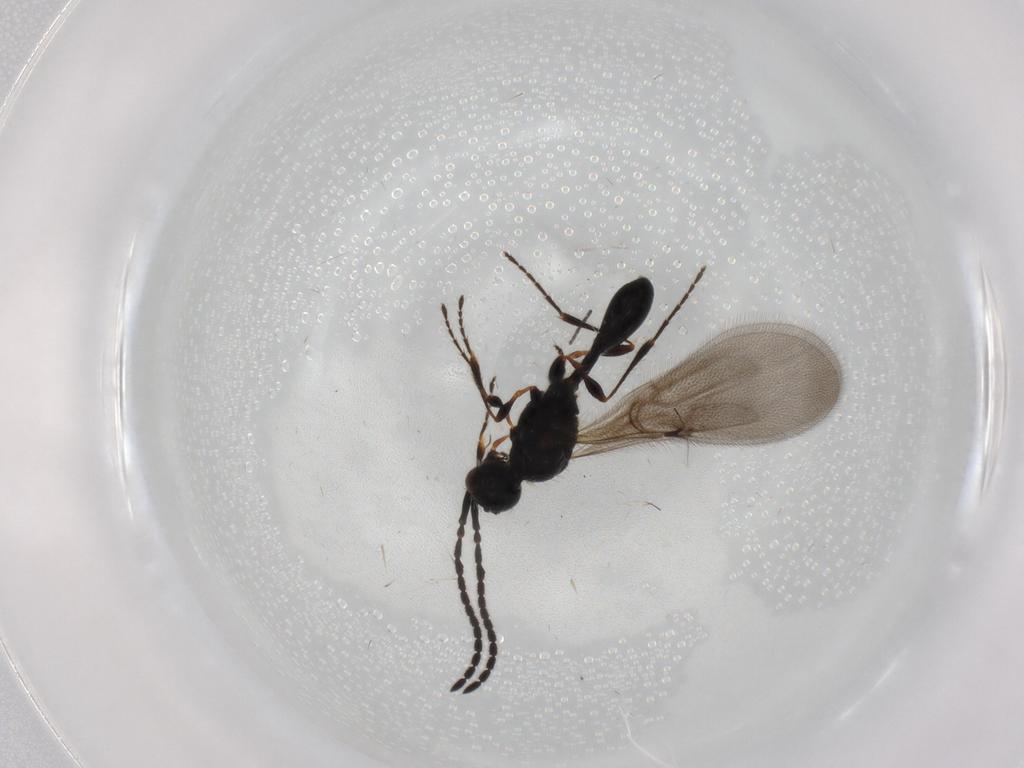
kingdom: Animalia
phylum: Arthropoda
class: Insecta
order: Hymenoptera
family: Diapriidae
